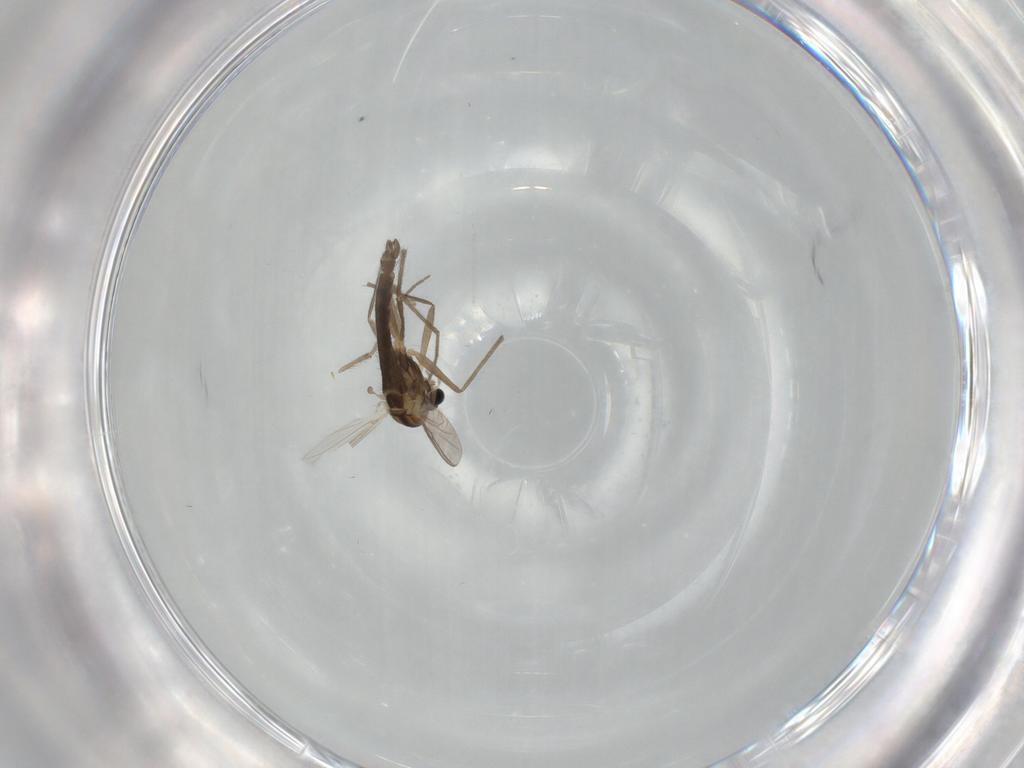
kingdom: Animalia
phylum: Arthropoda
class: Insecta
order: Diptera
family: Chironomidae
